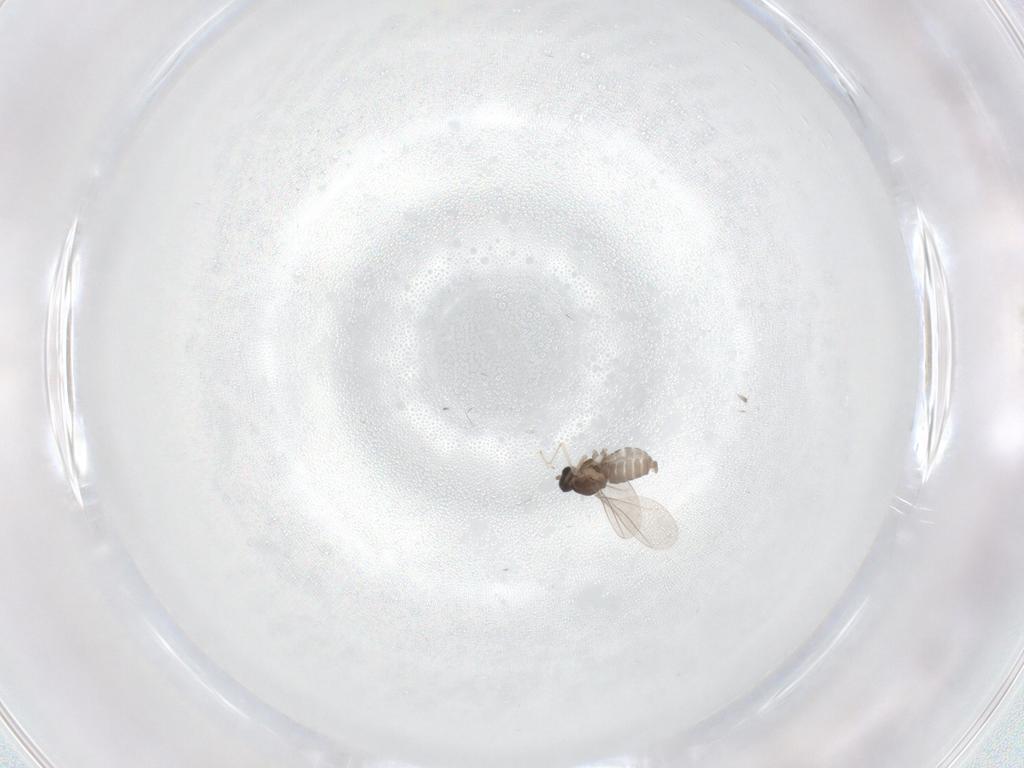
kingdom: Animalia
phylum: Arthropoda
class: Insecta
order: Diptera
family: Cecidomyiidae
